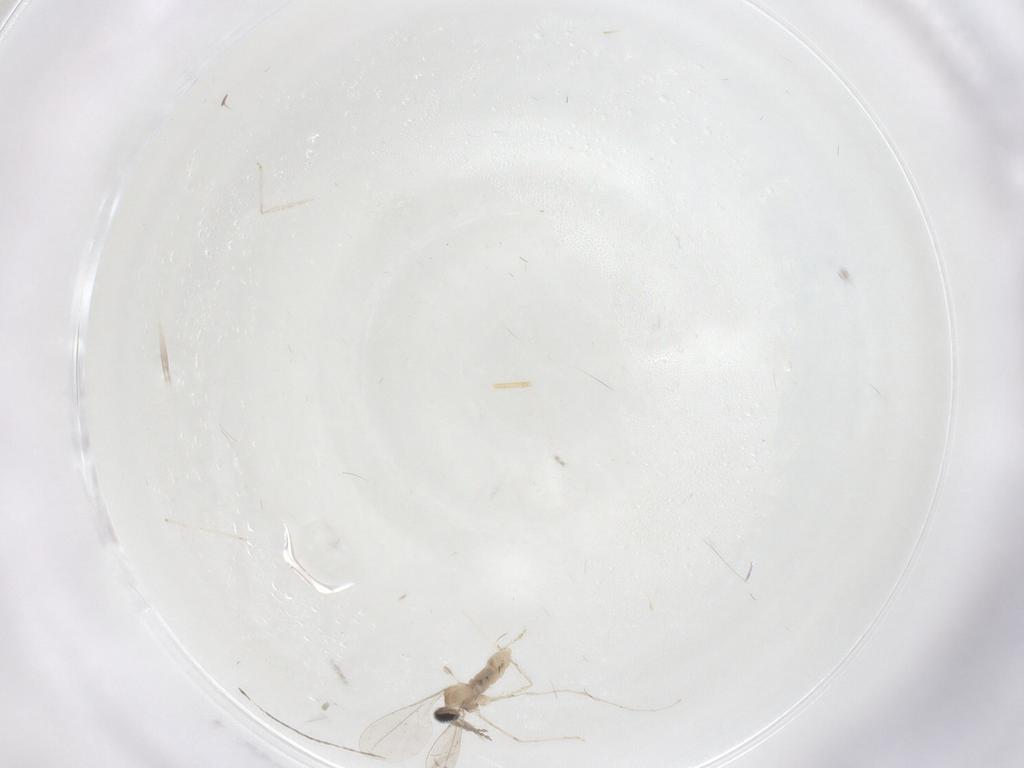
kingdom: Animalia
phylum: Arthropoda
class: Insecta
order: Diptera
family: Cecidomyiidae
